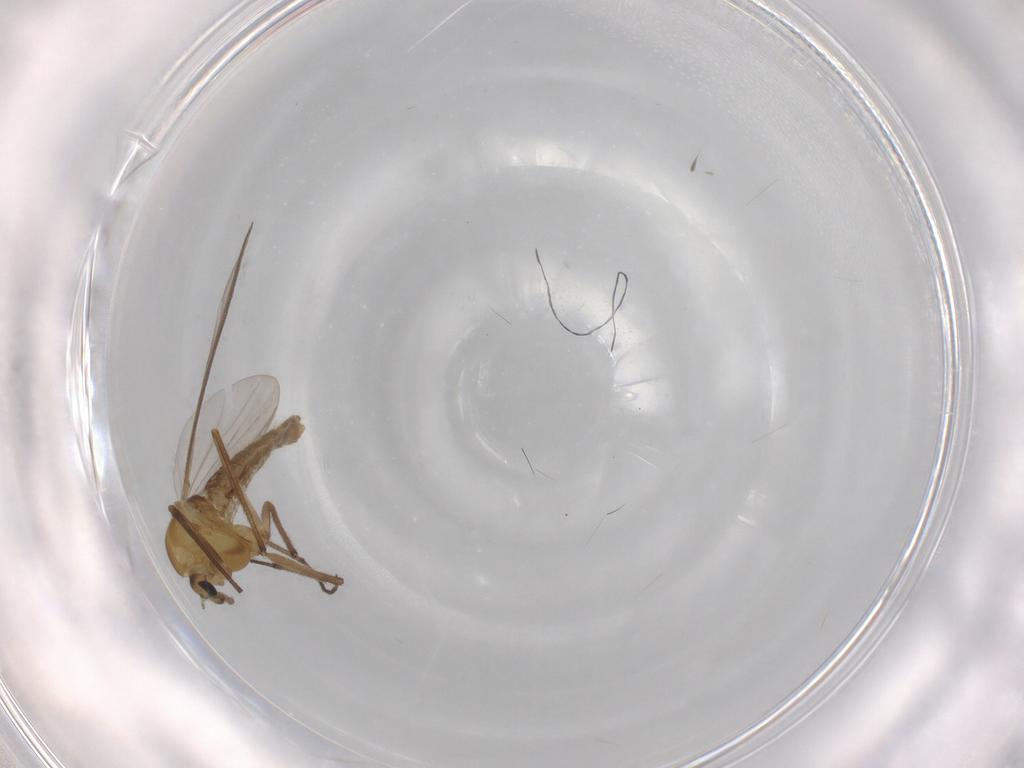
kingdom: Animalia
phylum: Arthropoda
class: Insecta
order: Diptera
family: Chironomidae
